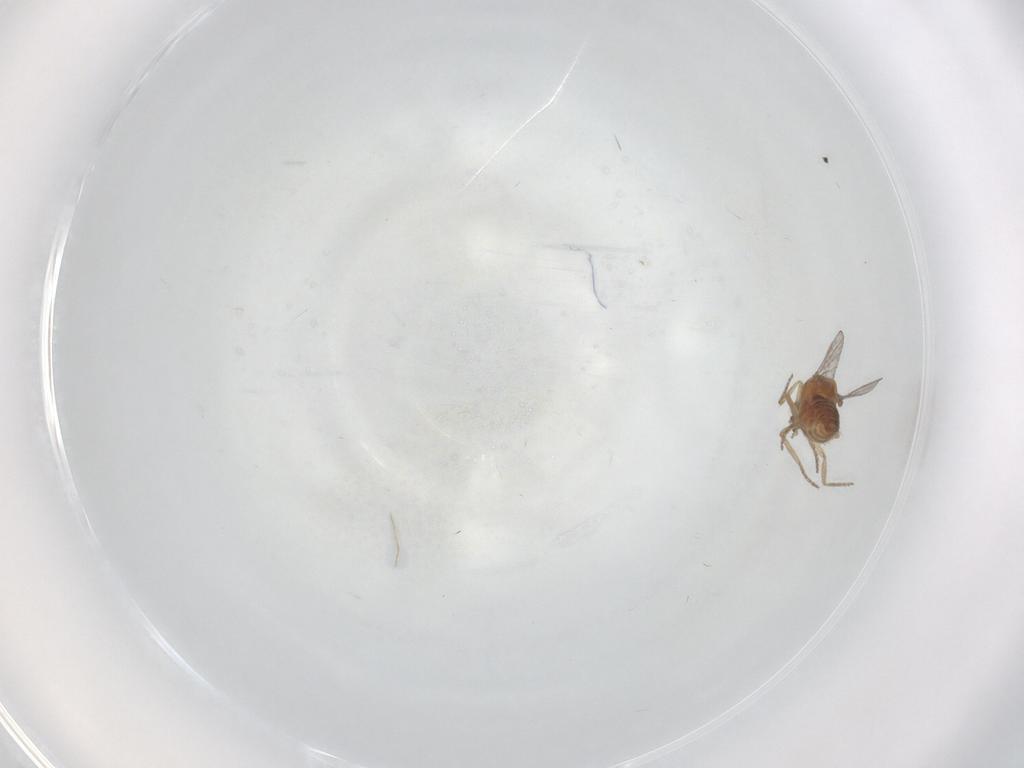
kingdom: Animalia
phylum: Arthropoda
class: Insecta
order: Diptera
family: Ceratopogonidae
